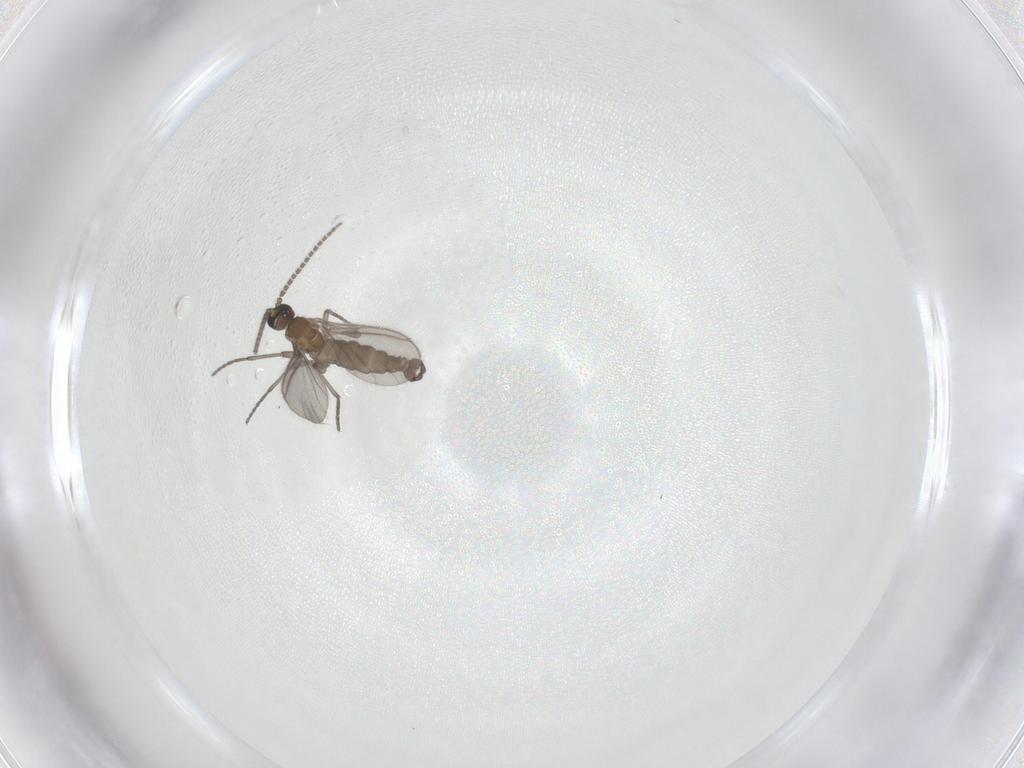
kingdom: Animalia
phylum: Arthropoda
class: Insecta
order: Diptera
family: Sciaridae
